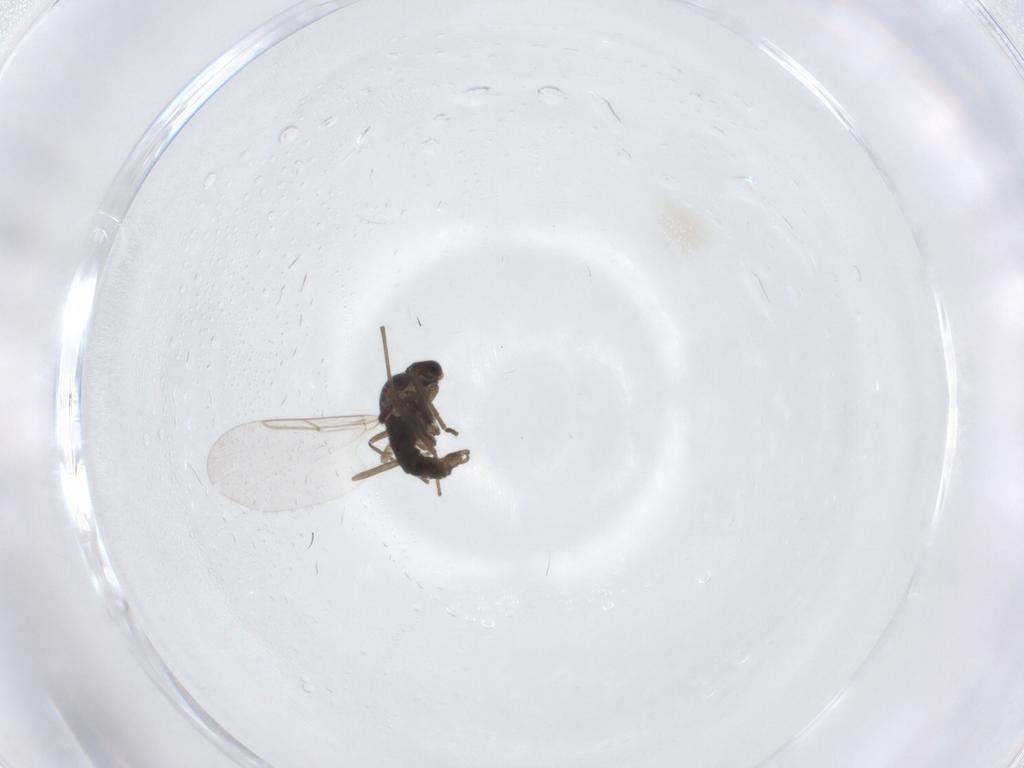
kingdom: Animalia
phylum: Arthropoda
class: Insecta
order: Diptera
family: Cecidomyiidae
